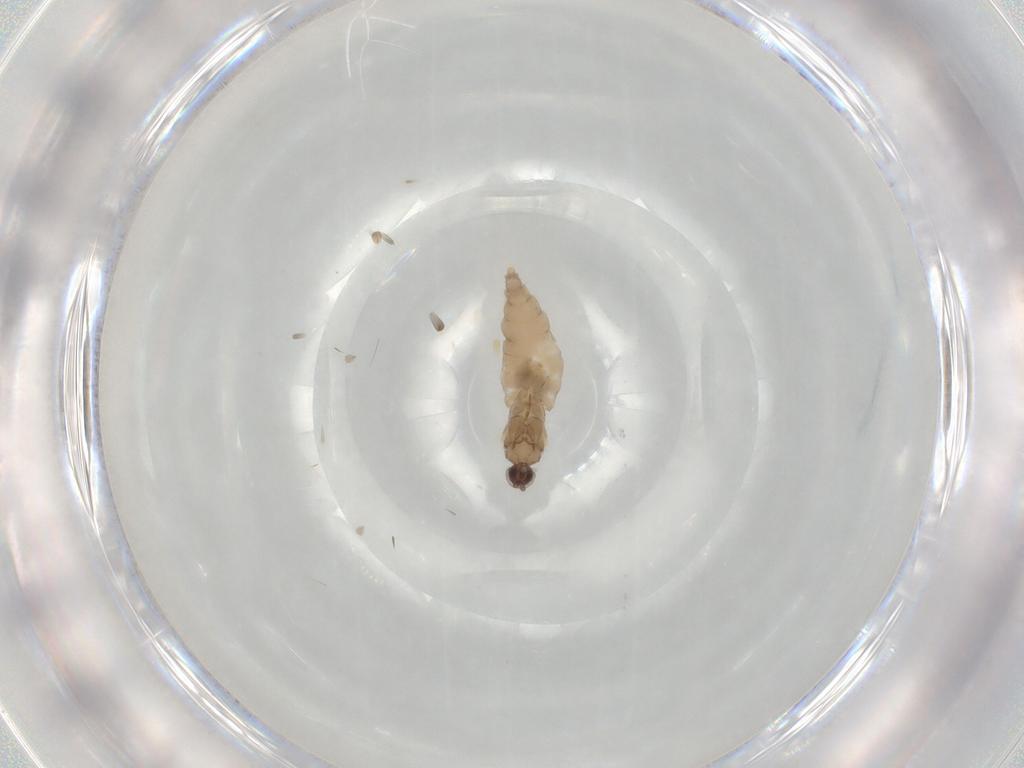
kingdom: Animalia
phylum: Arthropoda
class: Insecta
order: Diptera
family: Cecidomyiidae
